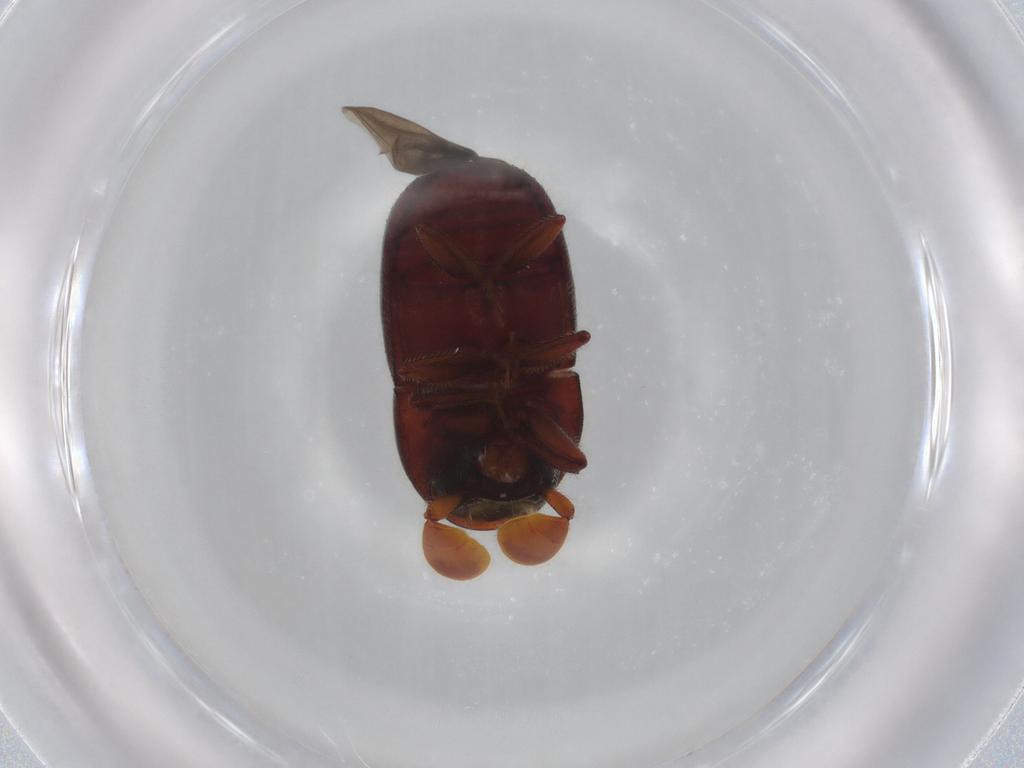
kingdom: Animalia
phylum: Arthropoda
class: Insecta
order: Coleoptera
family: Curculionidae
